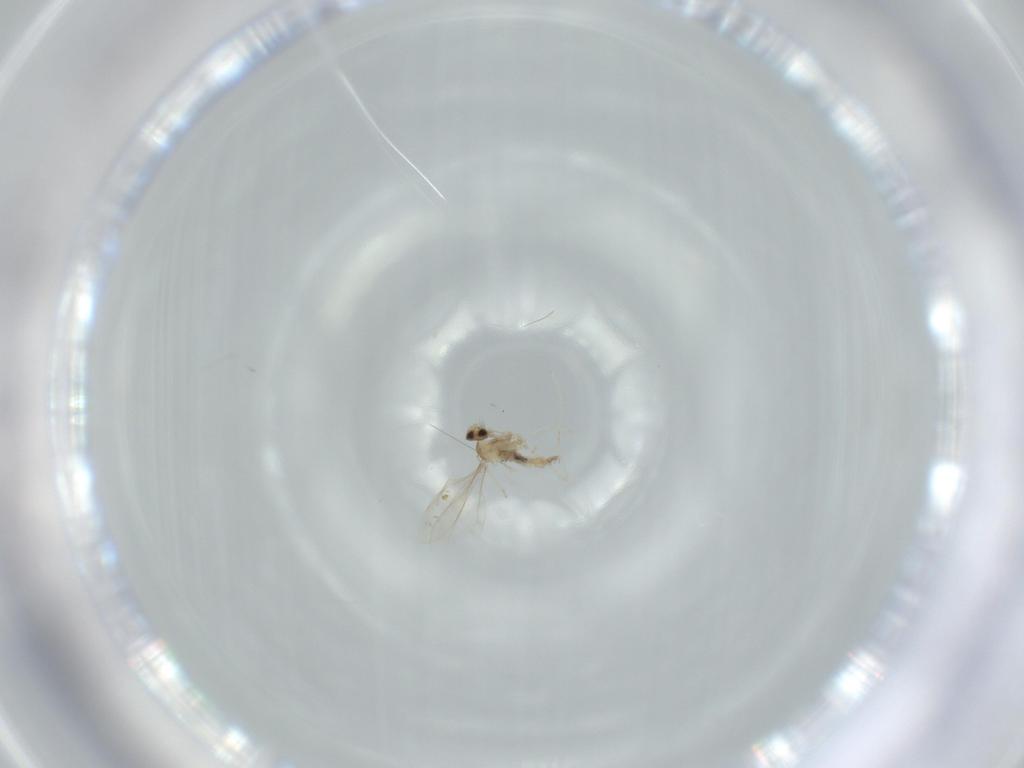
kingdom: Animalia
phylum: Arthropoda
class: Insecta
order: Diptera
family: Cecidomyiidae
